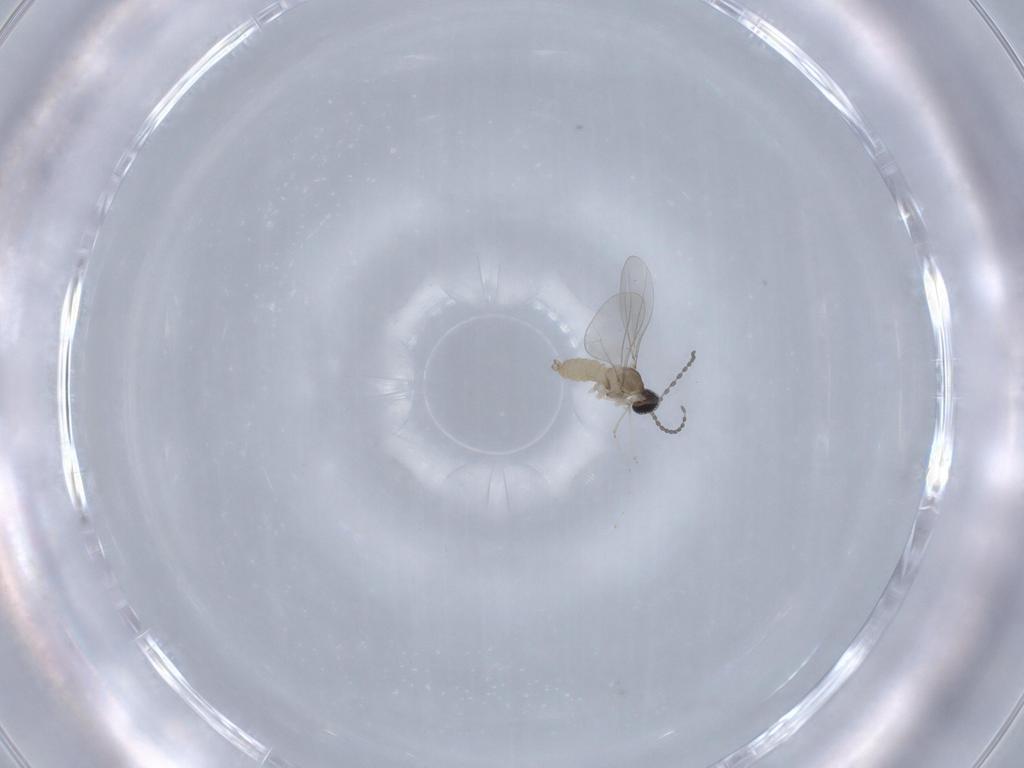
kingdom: Animalia
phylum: Arthropoda
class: Insecta
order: Diptera
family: Cecidomyiidae
